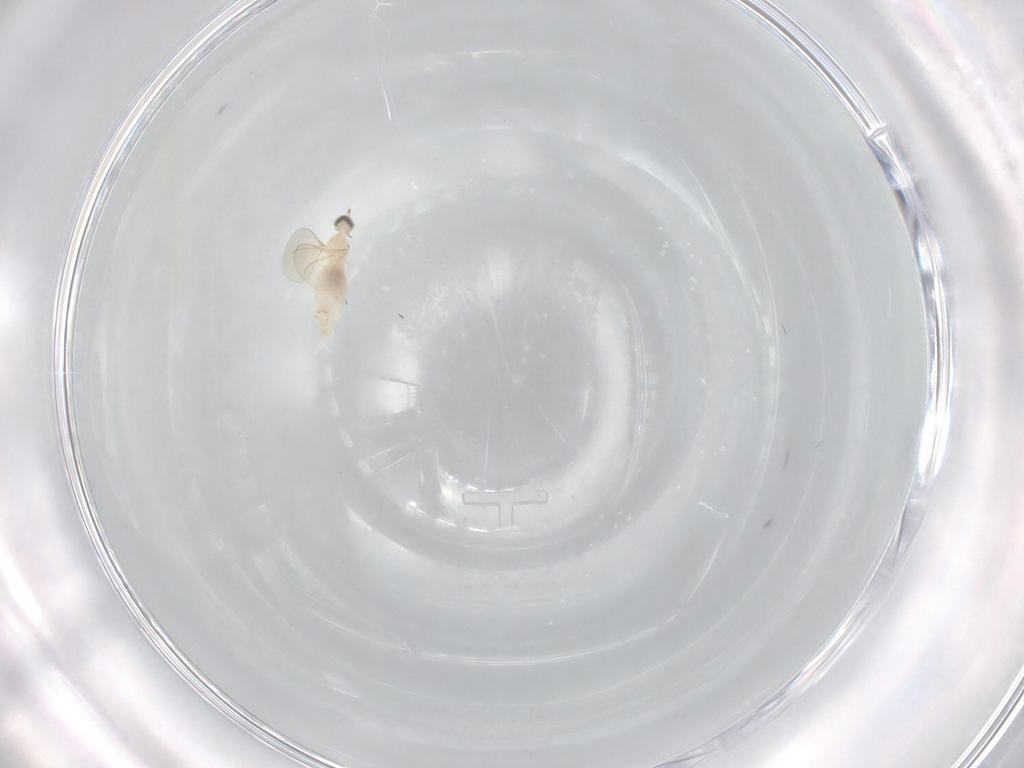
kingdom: Animalia
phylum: Arthropoda
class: Insecta
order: Diptera
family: Cecidomyiidae
